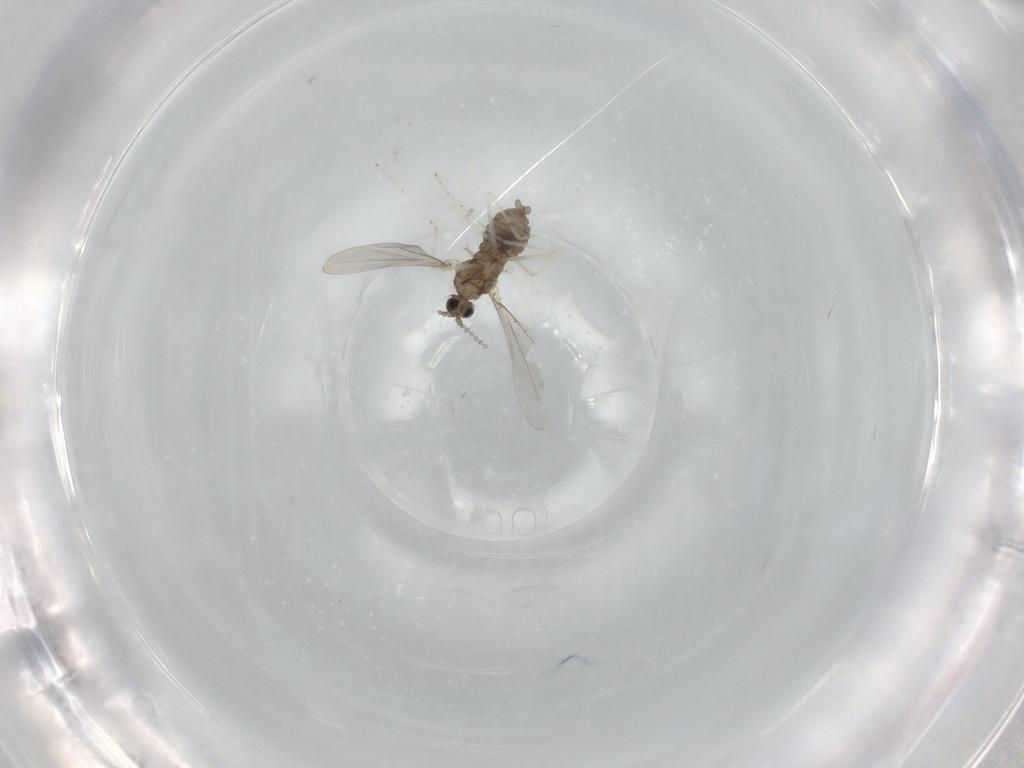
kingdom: Animalia
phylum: Arthropoda
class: Insecta
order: Diptera
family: Cecidomyiidae
